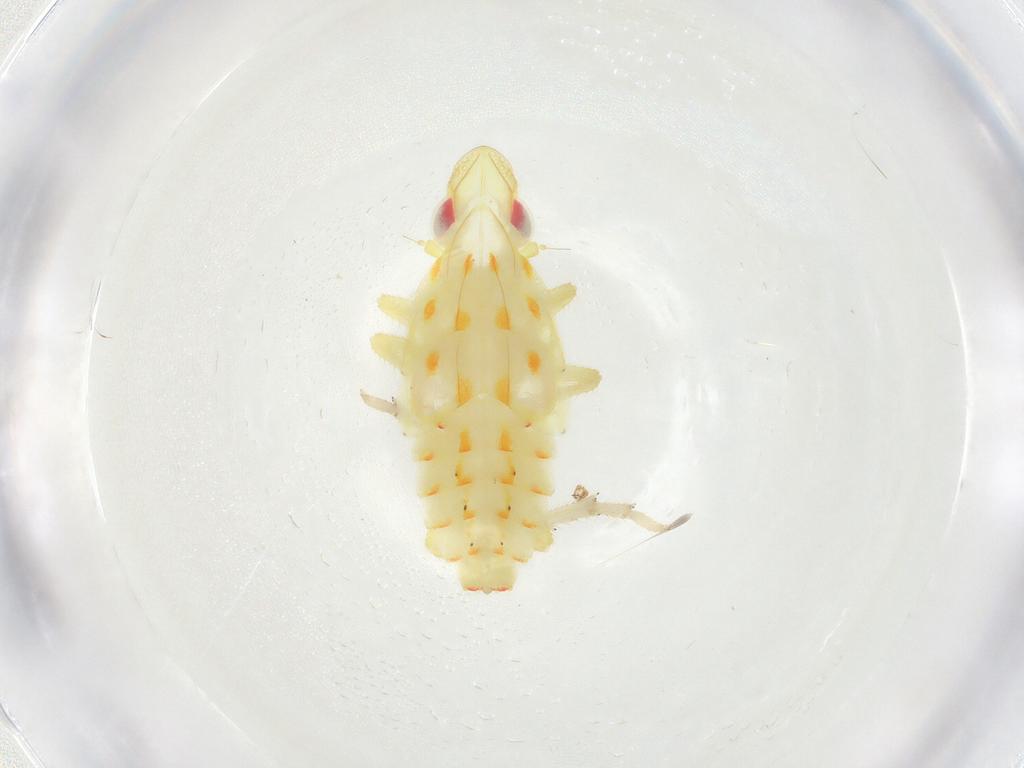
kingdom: Animalia
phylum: Arthropoda
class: Insecta
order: Hemiptera
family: Tropiduchidae
